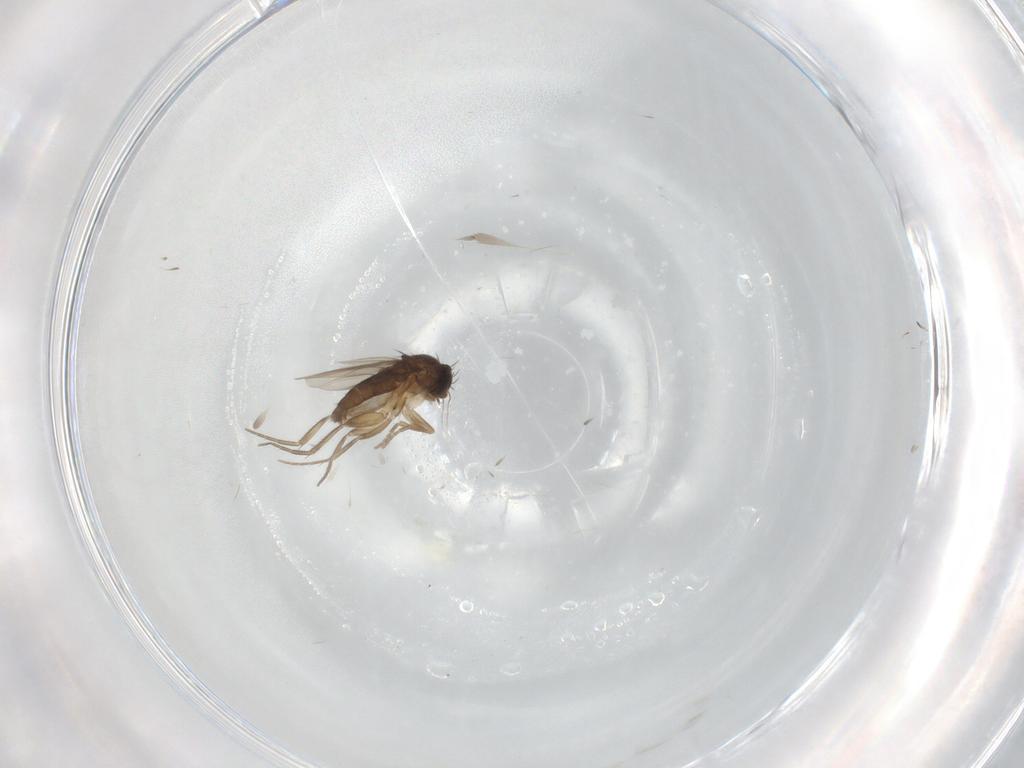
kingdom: Animalia
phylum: Arthropoda
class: Insecta
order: Diptera
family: Phoridae
